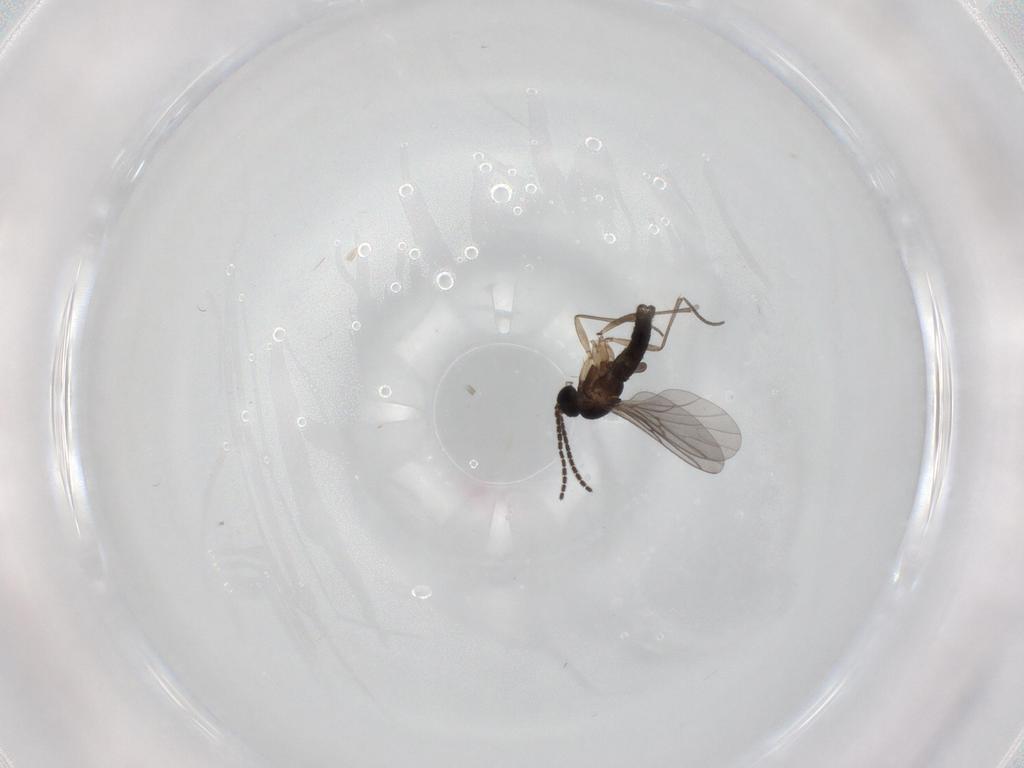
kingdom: Animalia
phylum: Arthropoda
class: Insecta
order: Diptera
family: Sciaridae
